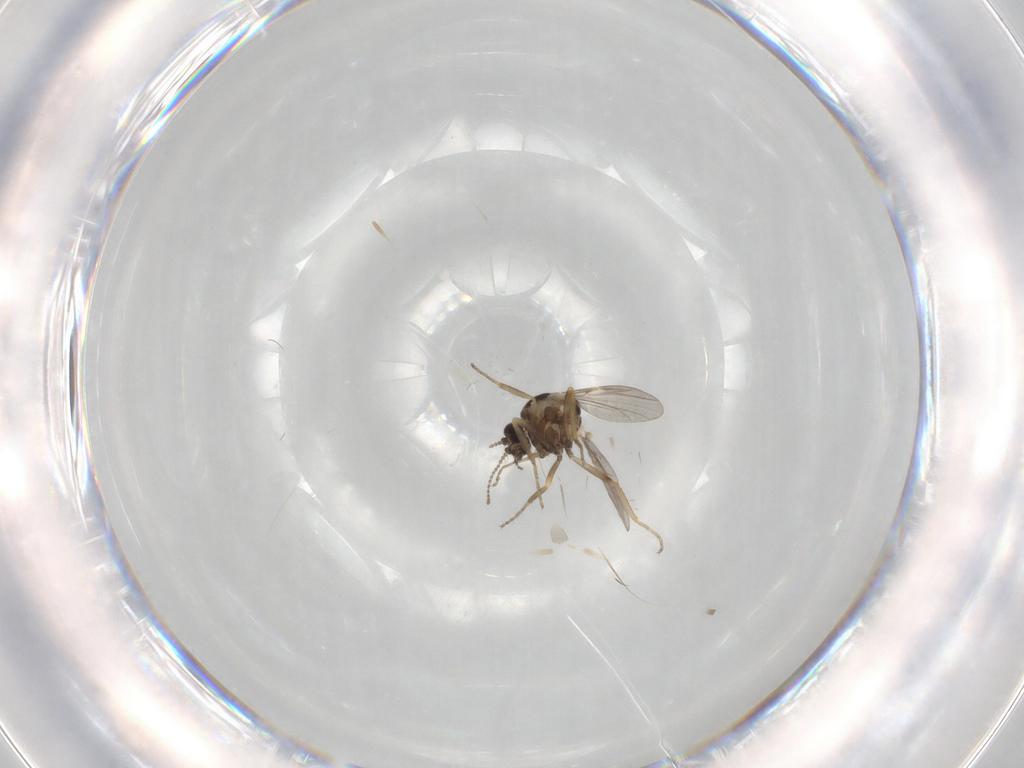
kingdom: Animalia
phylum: Arthropoda
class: Insecta
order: Diptera
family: Ceratopogonidae
